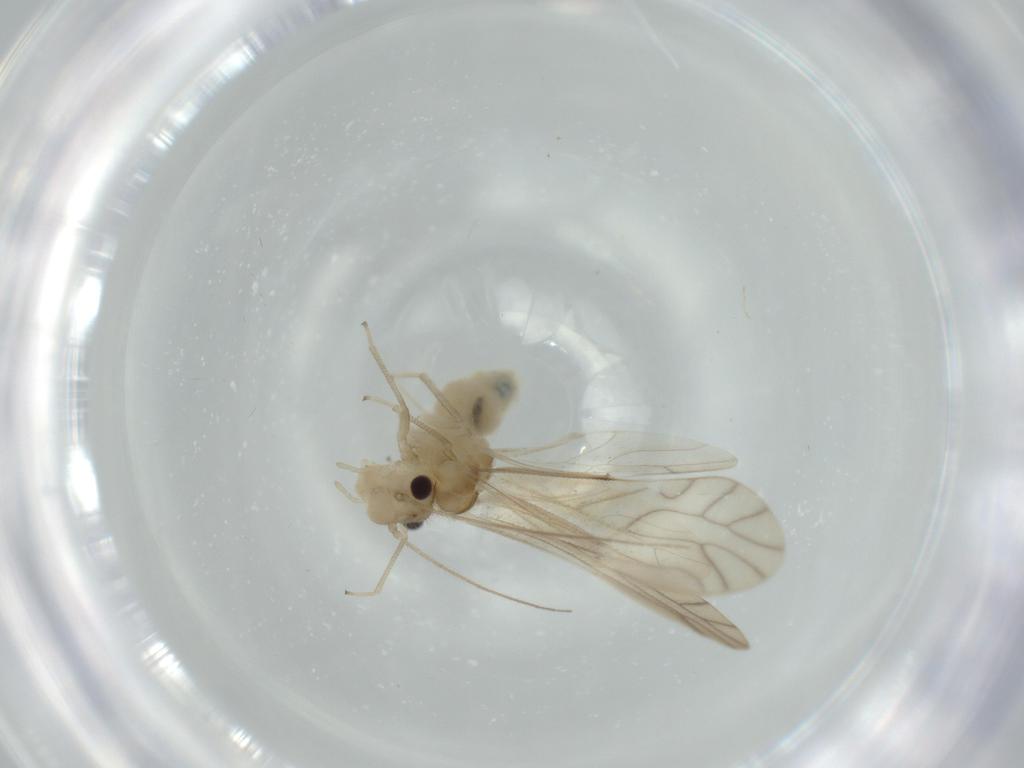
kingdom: Animalia
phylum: Arthropoda
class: Insecta
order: Psocodea
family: Caeciliusidae
